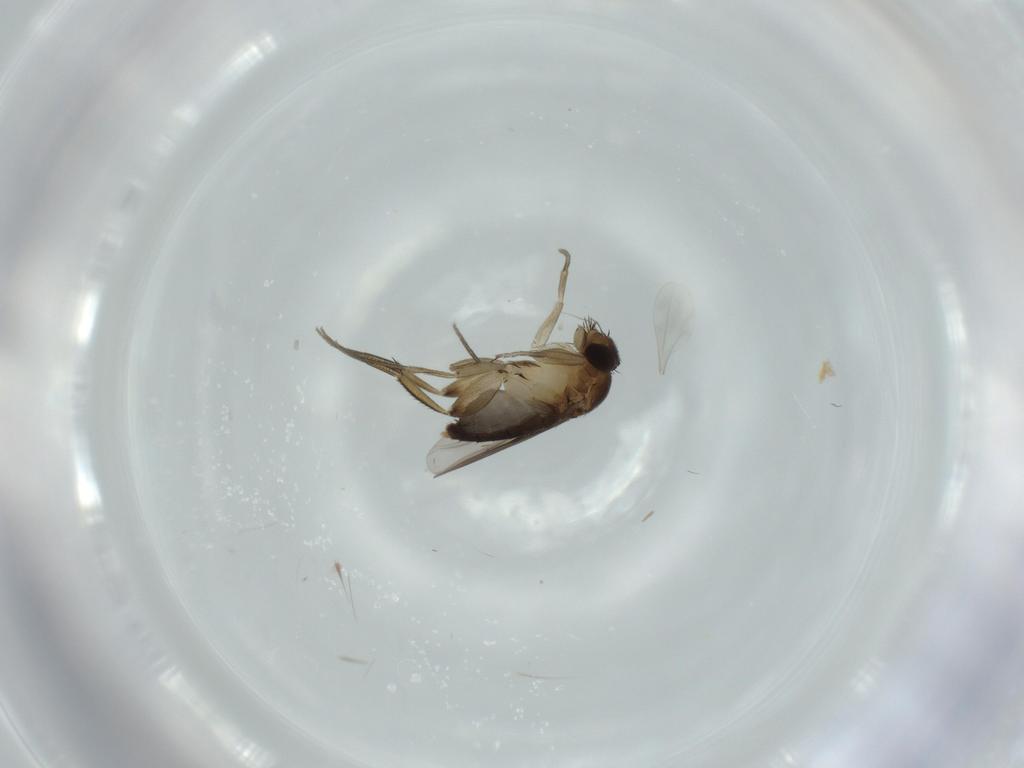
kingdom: Animalia
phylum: Arthropoda
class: Insecta
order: Diptera
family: Phoridae
